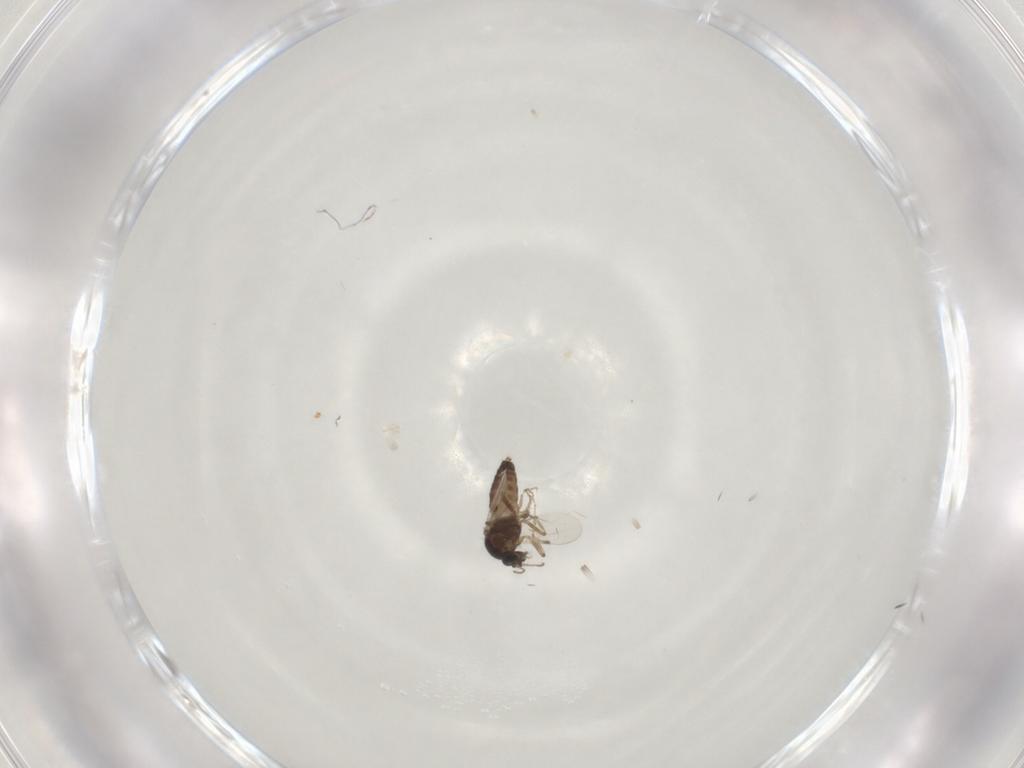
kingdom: Animalia
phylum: Arthropoda
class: Insecta
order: Diptera
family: Ceratopogonidae
